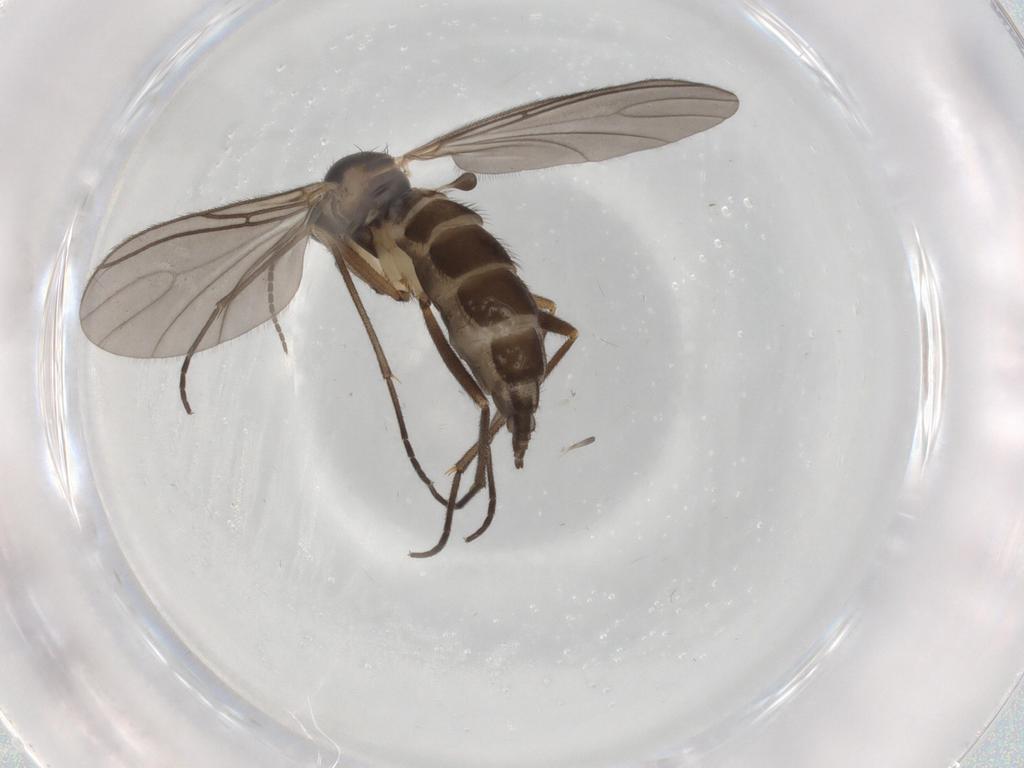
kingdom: Animalia
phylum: Arthropoda
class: Insecta
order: Diptera
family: Sciaridae
